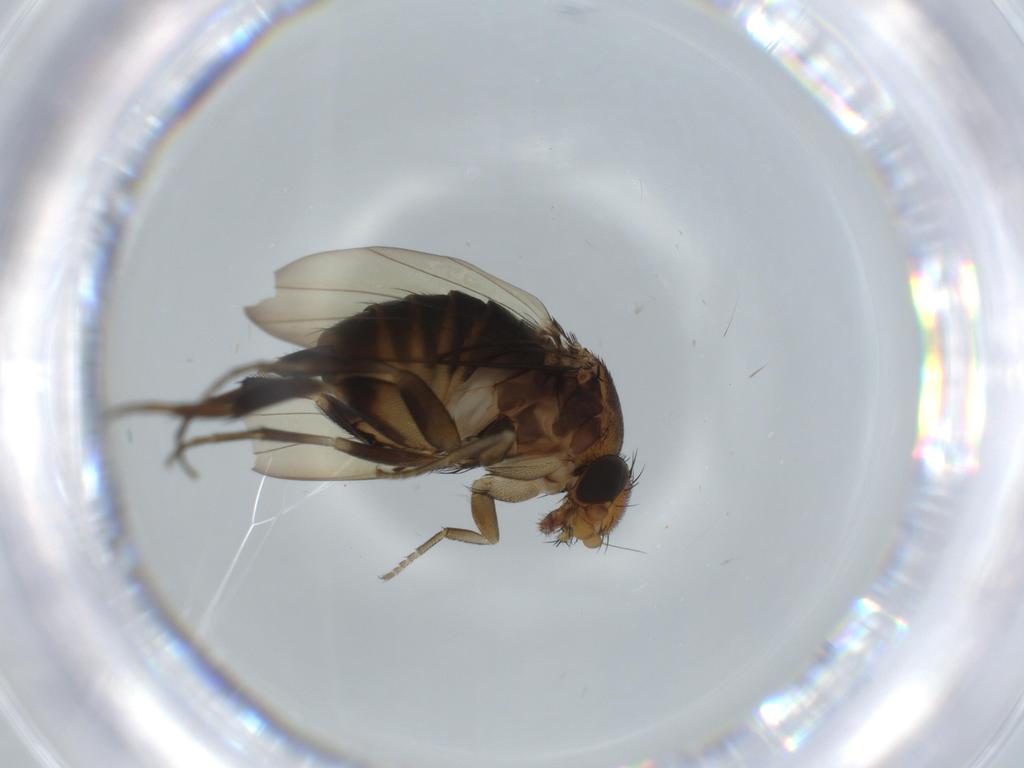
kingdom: Animalia
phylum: Arthropoda
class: Insecta
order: Diptera
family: Phoridae
